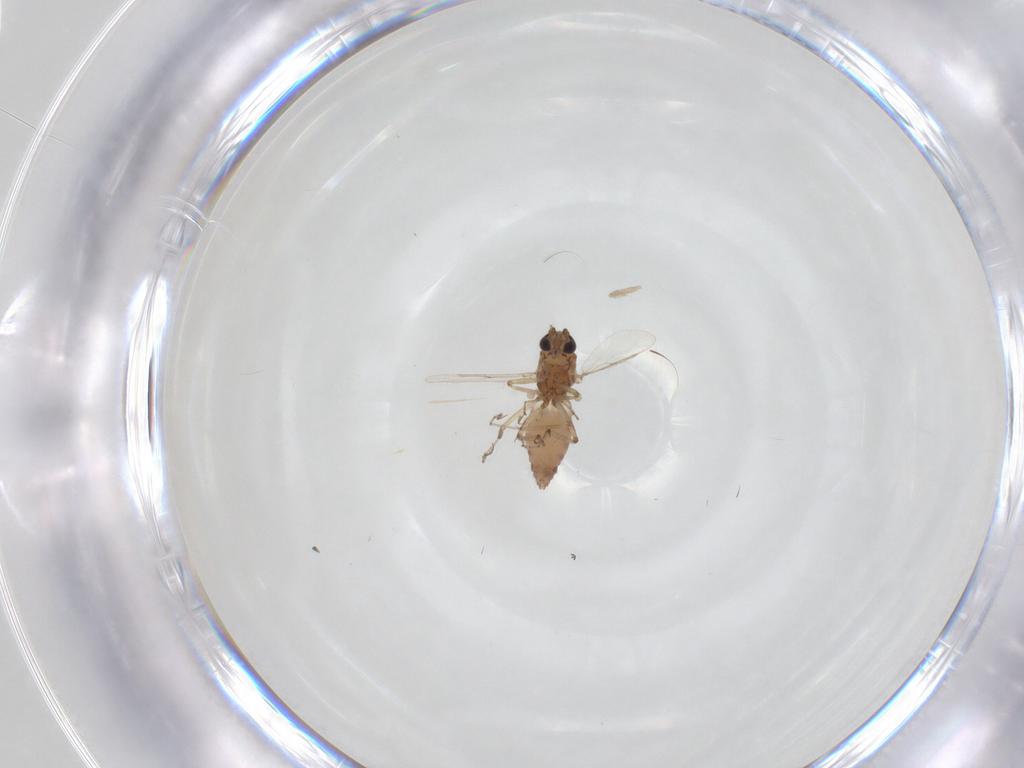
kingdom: Animalia
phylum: Arthropoda
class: Insecta
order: Diptera
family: Ceratopogonidae
